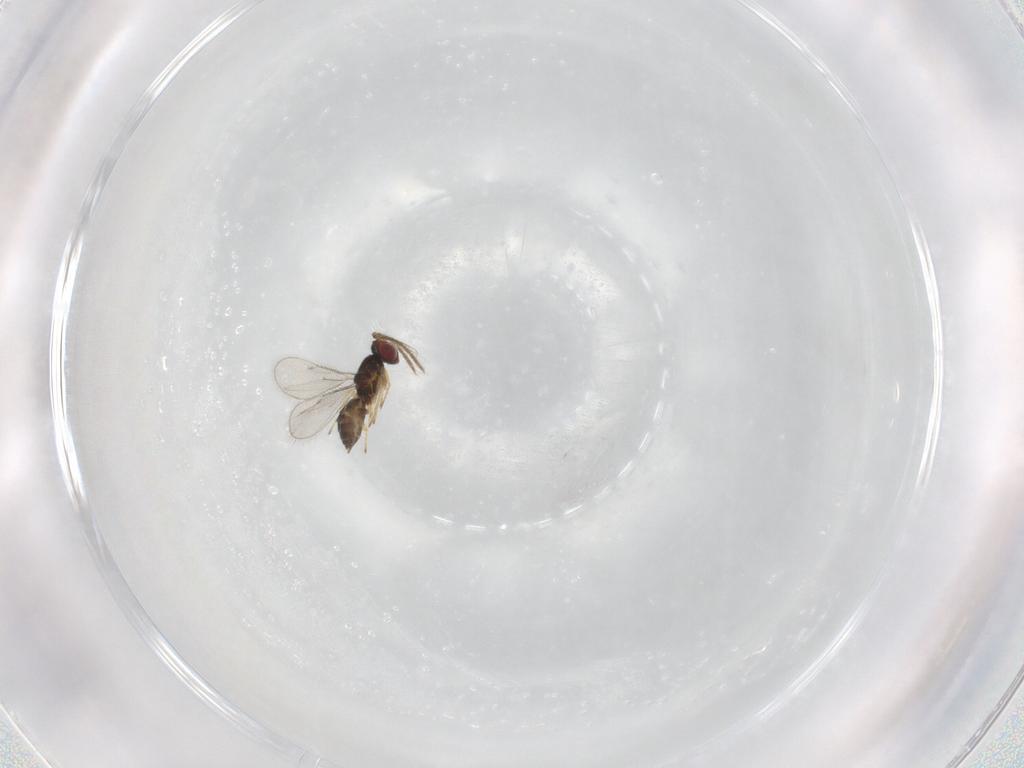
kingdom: Animalia
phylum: Arthropoda
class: Insecta
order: Hymenoptera
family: Eulophidae
